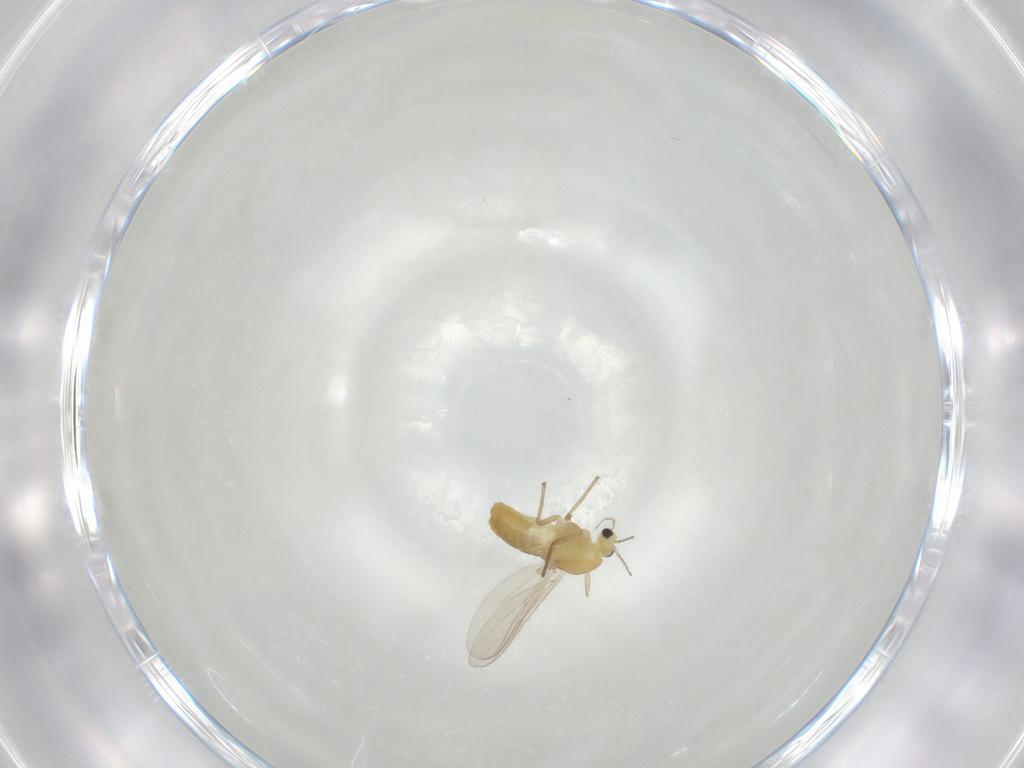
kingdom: Animalia
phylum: Arthropoda
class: Insecta
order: Diptera
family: Chironomidae
